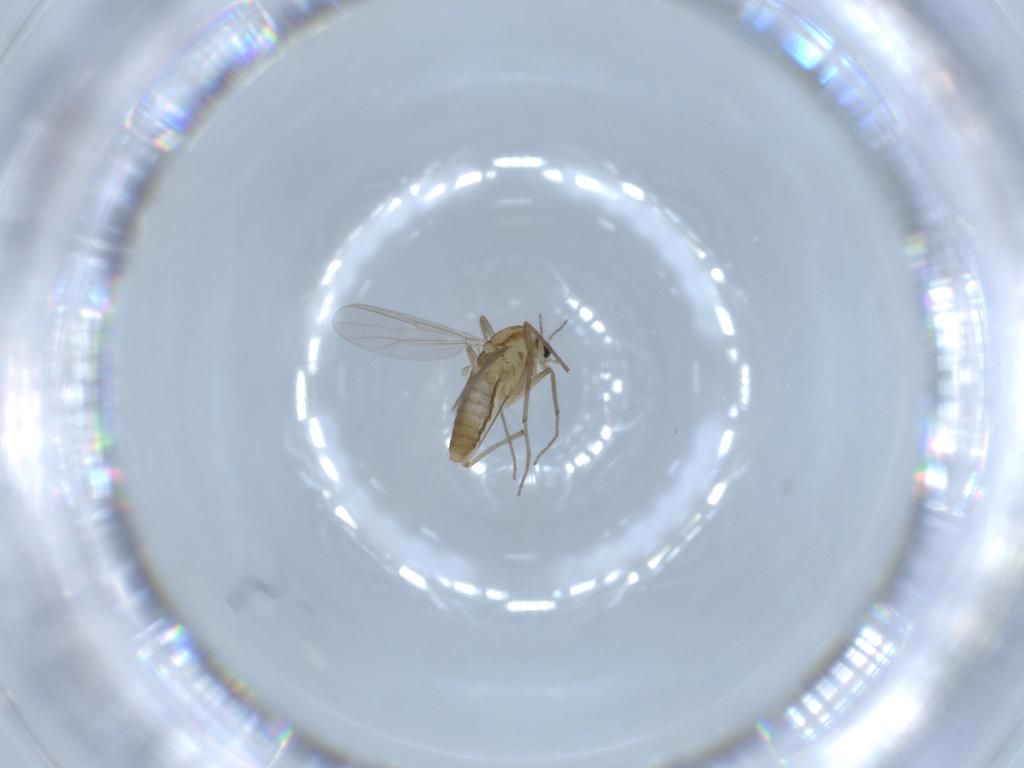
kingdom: Animalia
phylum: Arthropoda
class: Insecta
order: Diptera
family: Chironomidae
